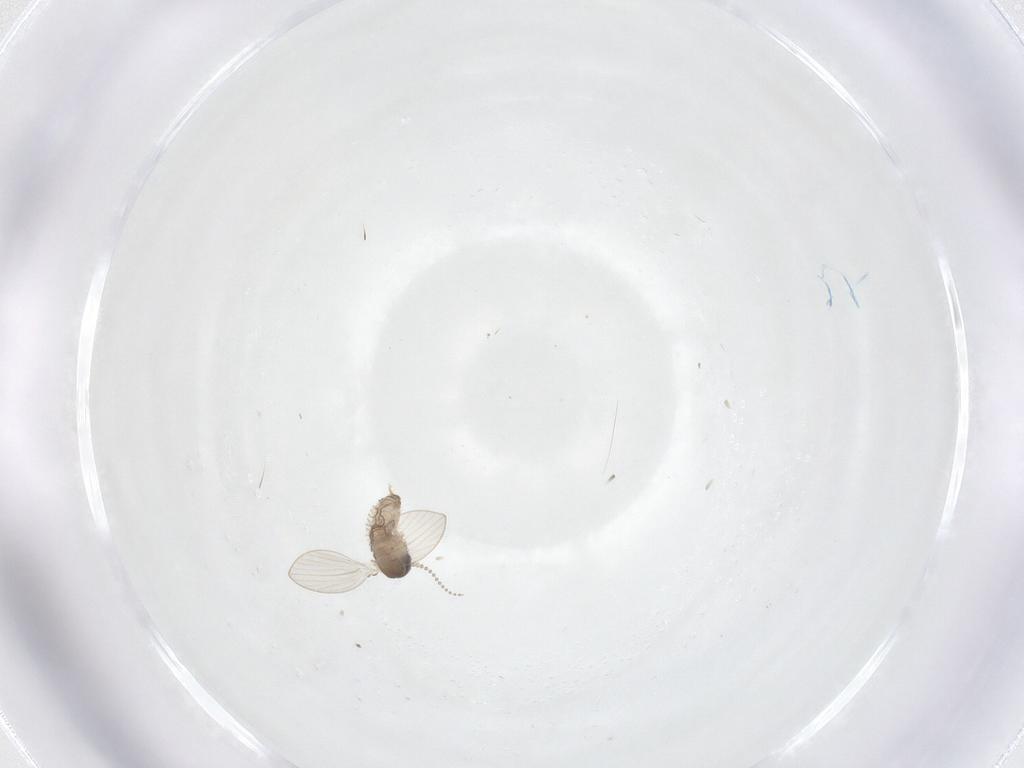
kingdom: Animalia
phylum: Arthropoda
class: Insecta
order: Diptera
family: Psychodidae
